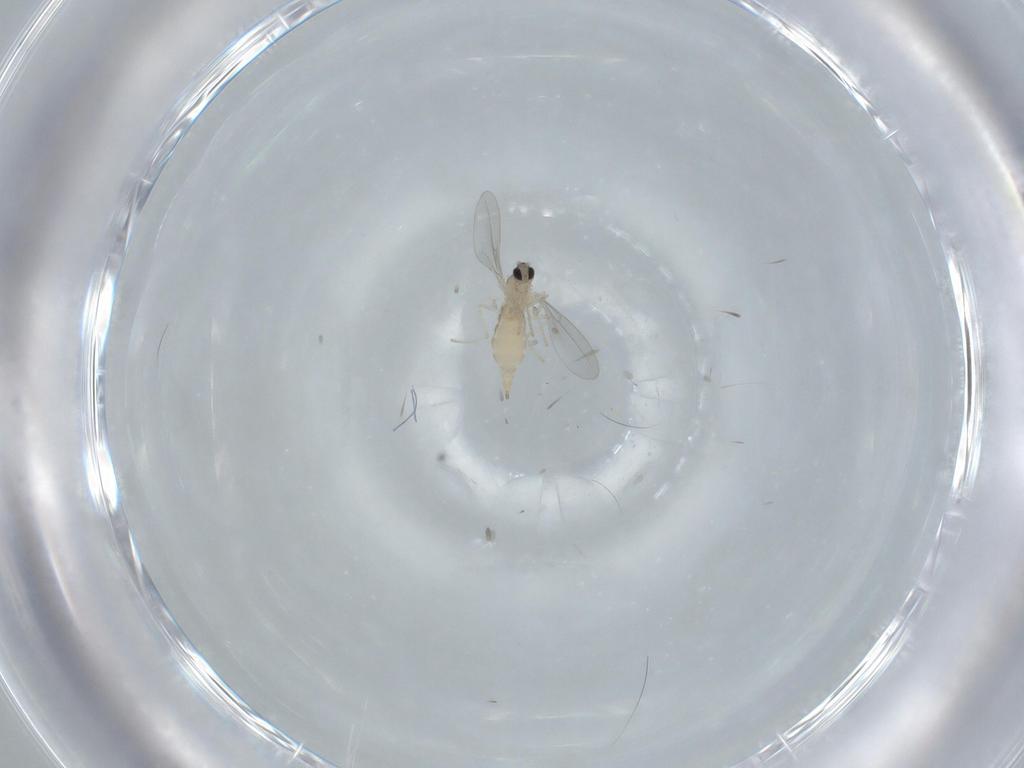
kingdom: Animalia
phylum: Arthropoda
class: Insecta
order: Diptera
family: Cecidomyiidae
